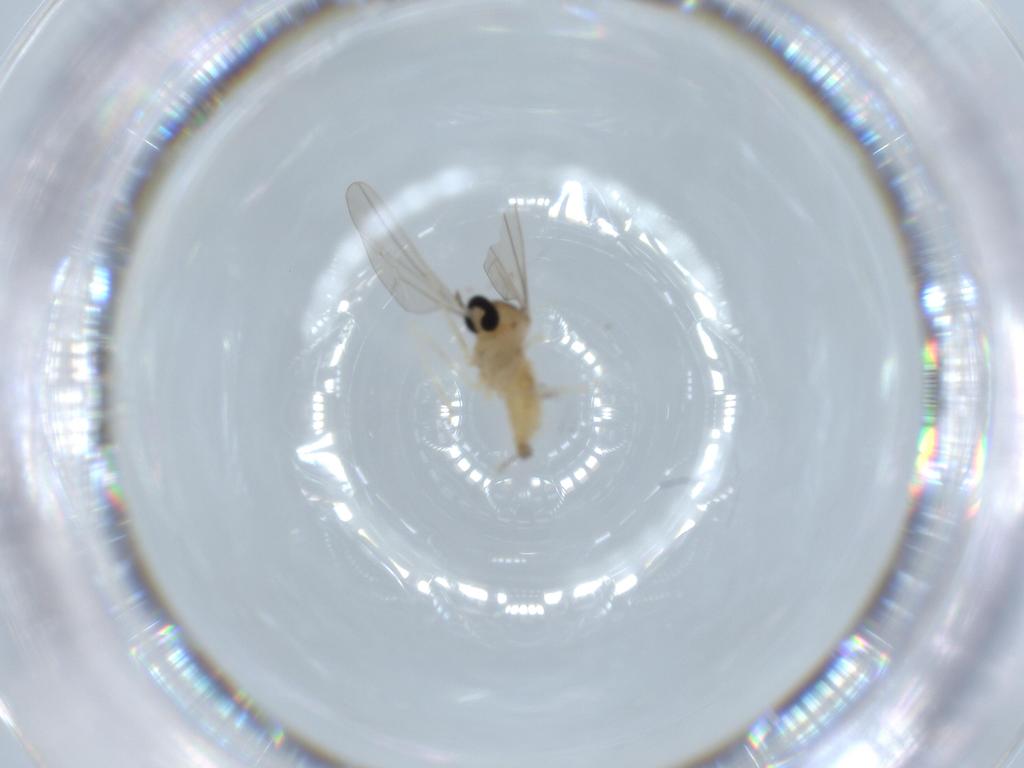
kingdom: Animalia
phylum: Arthropoda
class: Insecta
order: Diptera
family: Cecidomyiidae
